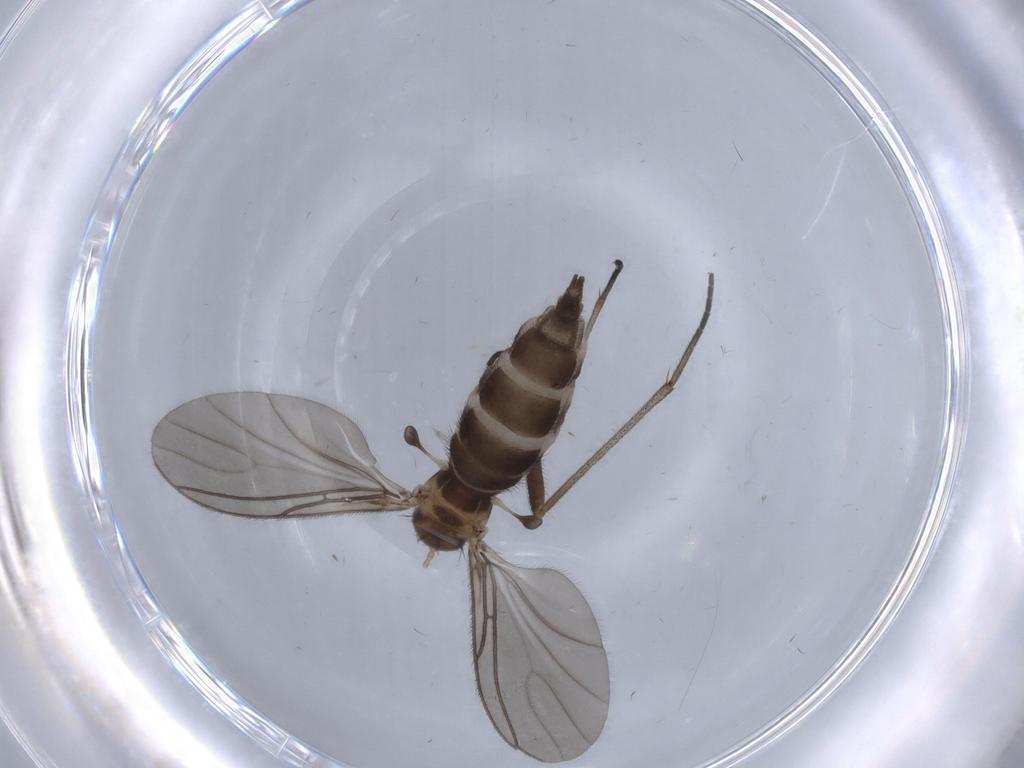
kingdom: Animalia
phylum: Arthropoda
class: Insecta
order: Diptera
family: Sciaridae
